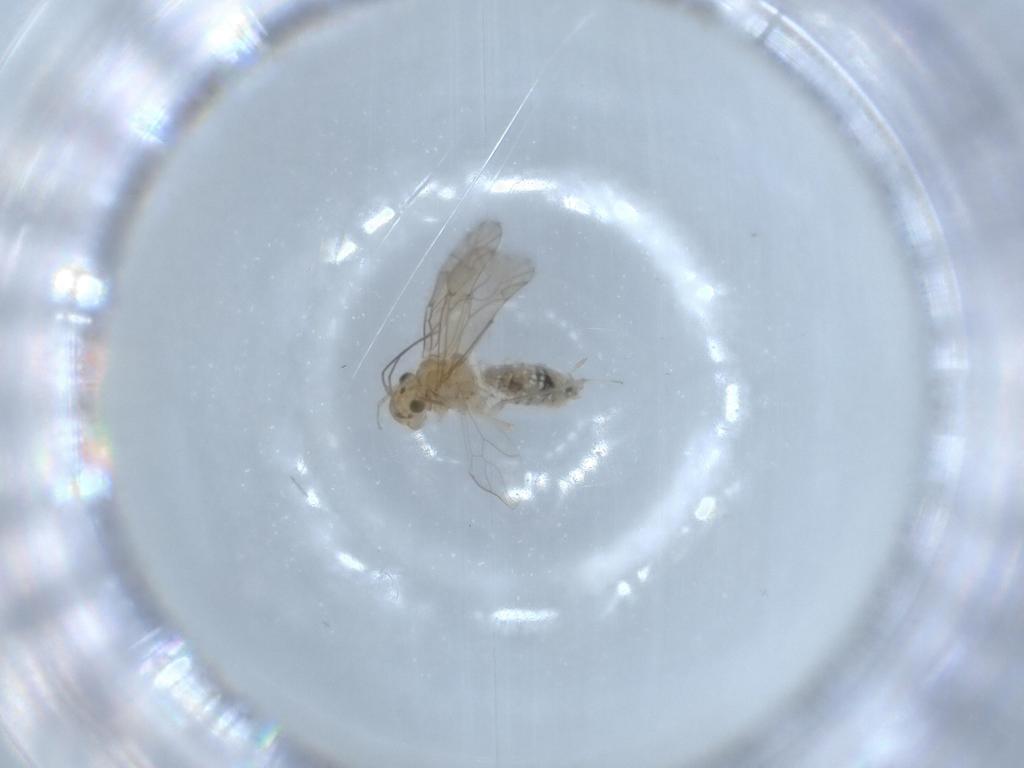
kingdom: Animalia
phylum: Arthropoda
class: Insecta
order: Psocodea
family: Lachesillidae
